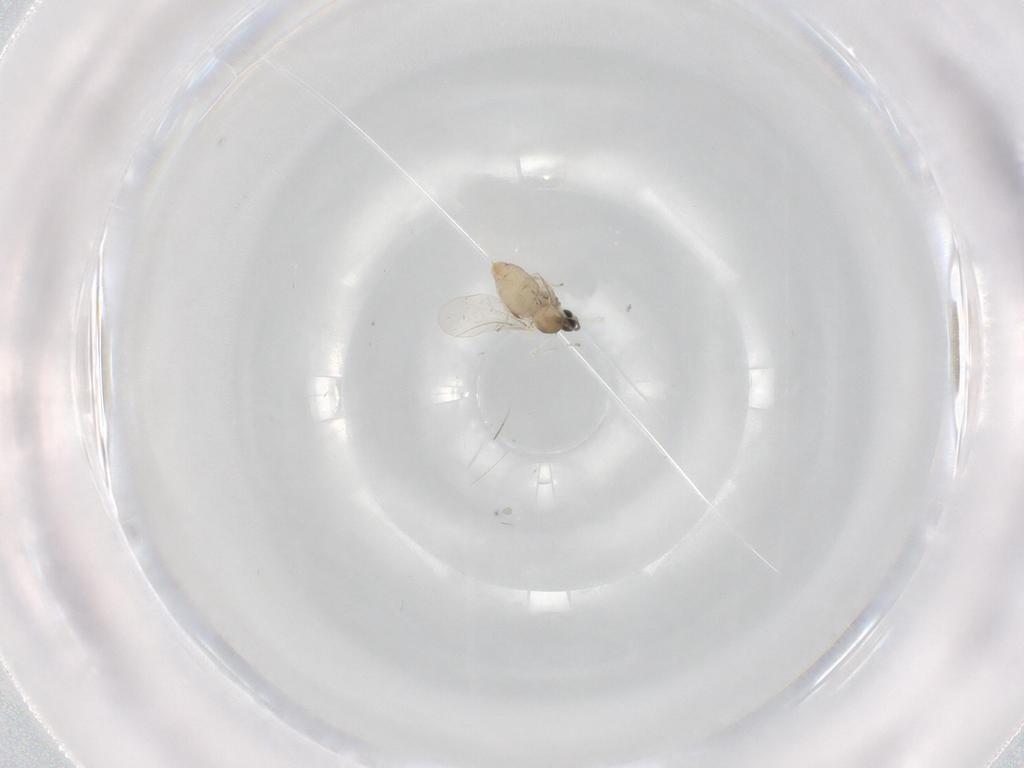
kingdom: Animalia
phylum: Arthropoda
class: Insecta
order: Diptera
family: Cecidomyiidae
